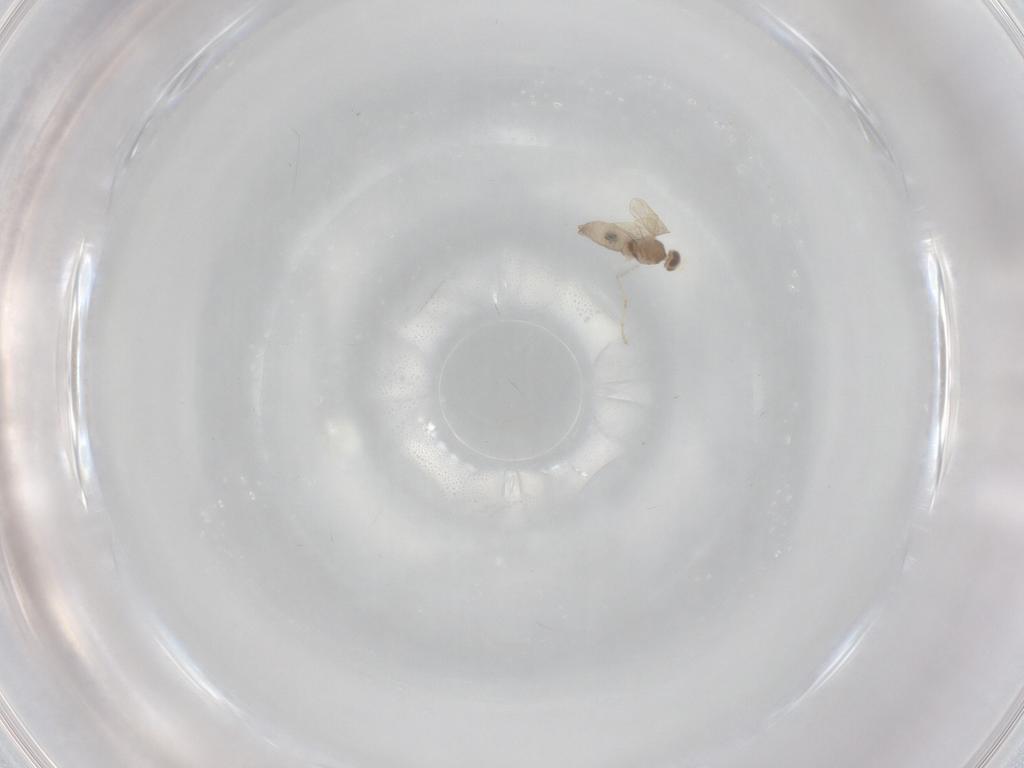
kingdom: Animalia
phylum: Arthropoda
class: Insecta
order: Diptera
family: Cecidomyiidae
